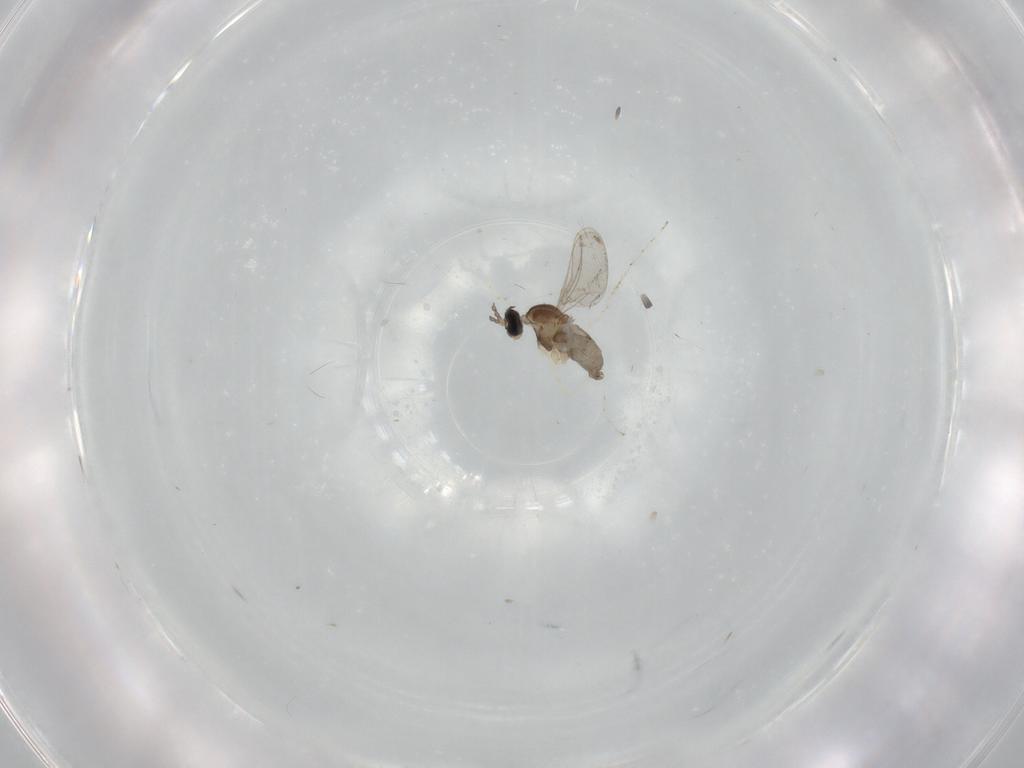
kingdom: Animalia
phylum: Arthropoda
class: Insecta
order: Diptera
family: Cecidomyiidae
